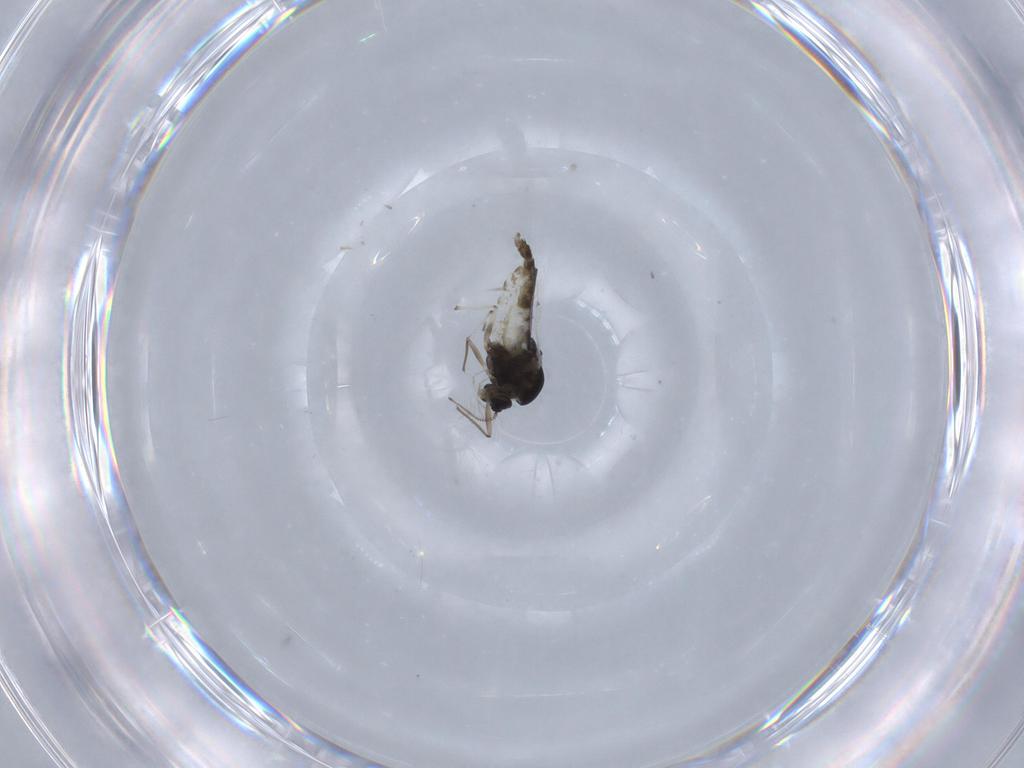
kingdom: Animalia
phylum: Arthropoda
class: Insecta
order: Diptera
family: Chironomidae
